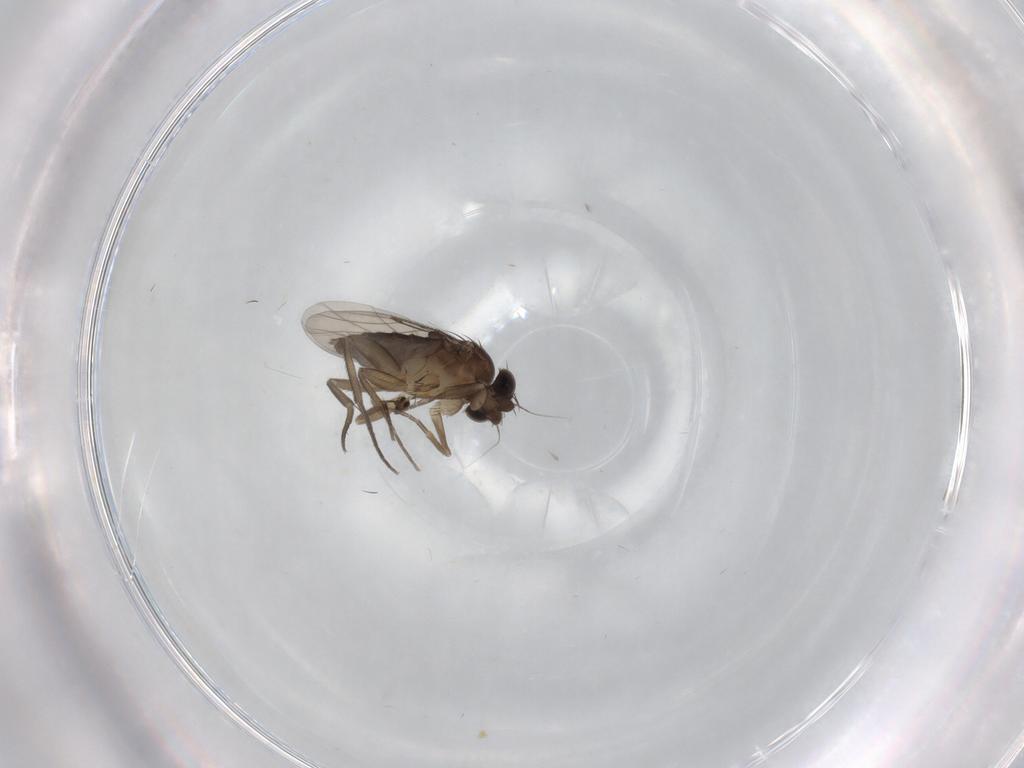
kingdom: Animalia
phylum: Arthropoda
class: Insecta
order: Diptera
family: Phoridae
